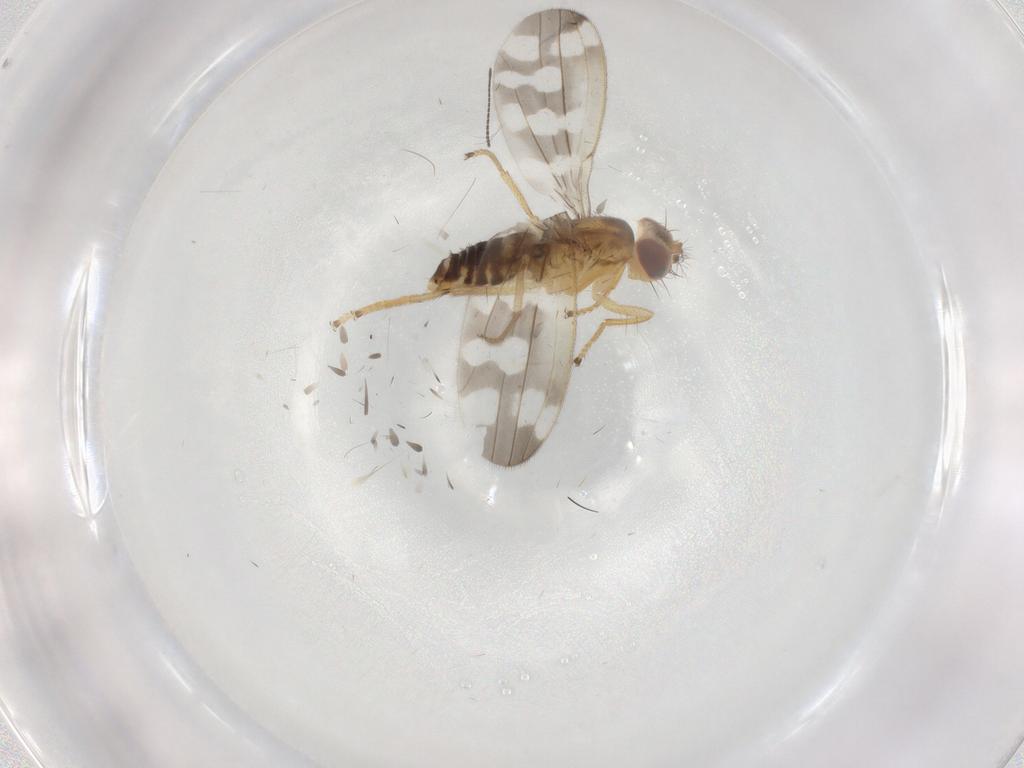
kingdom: Animalia
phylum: Arthropoda
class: Insecta
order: Diptera
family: Periscelididae
